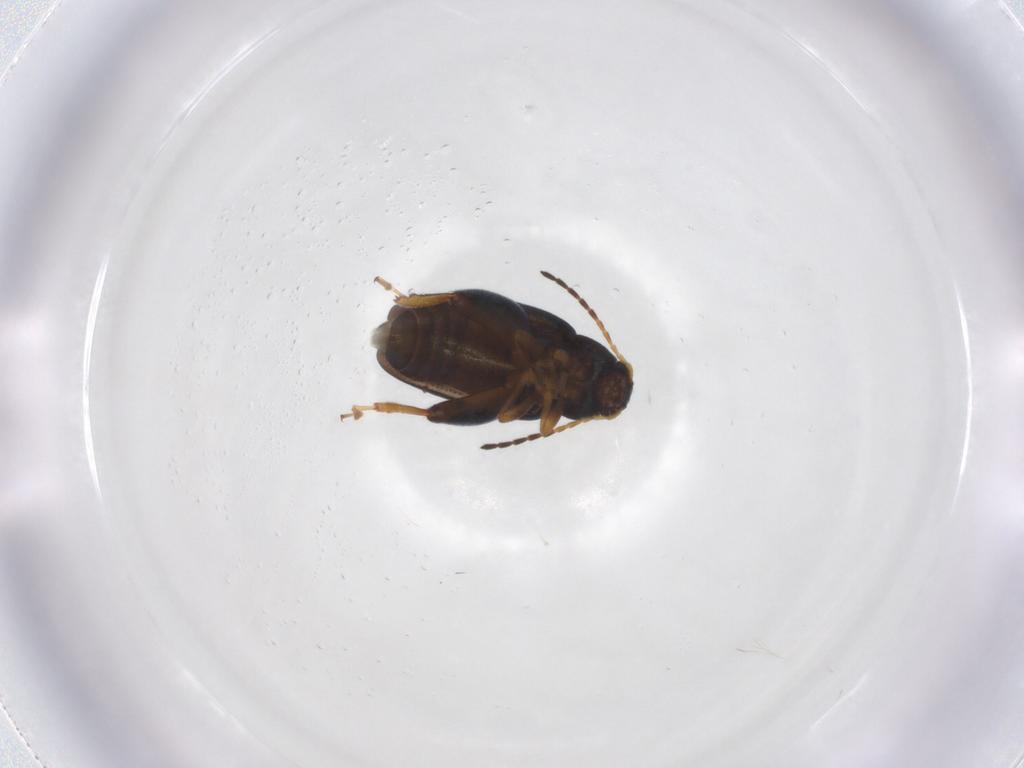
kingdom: Animalia
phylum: Arthropoda
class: Insecta
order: Coleoptera
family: Chrysomelidae
